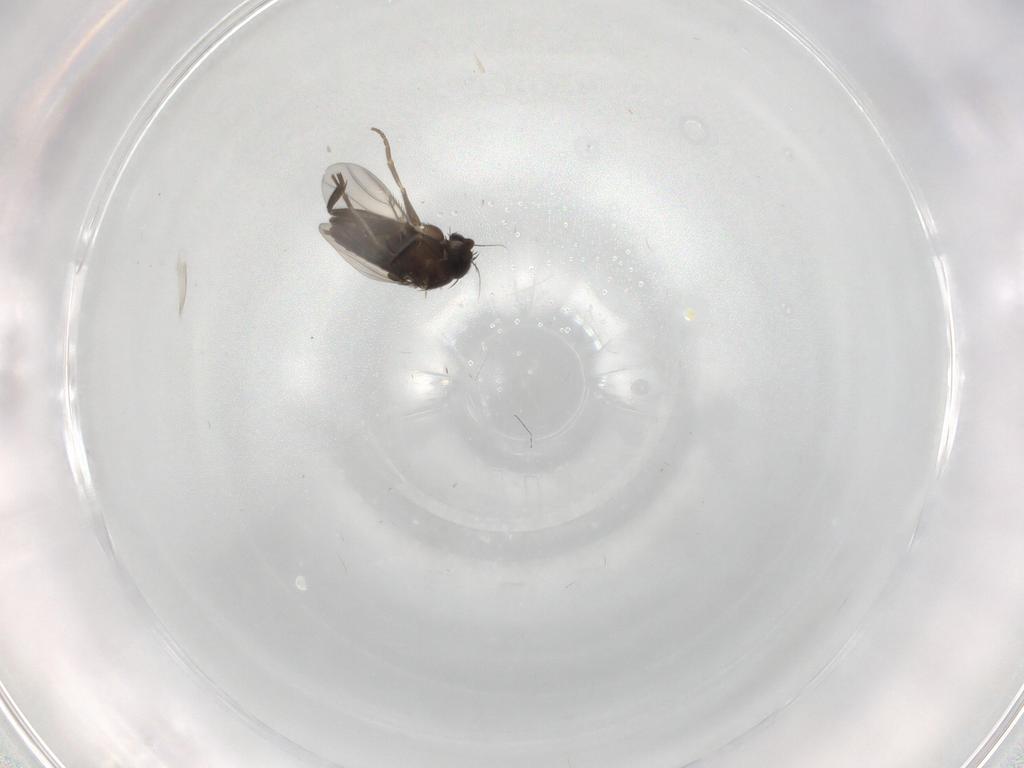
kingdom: Animalia
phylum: Arthropoda
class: Insecta
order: Diptera
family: Phoridae
